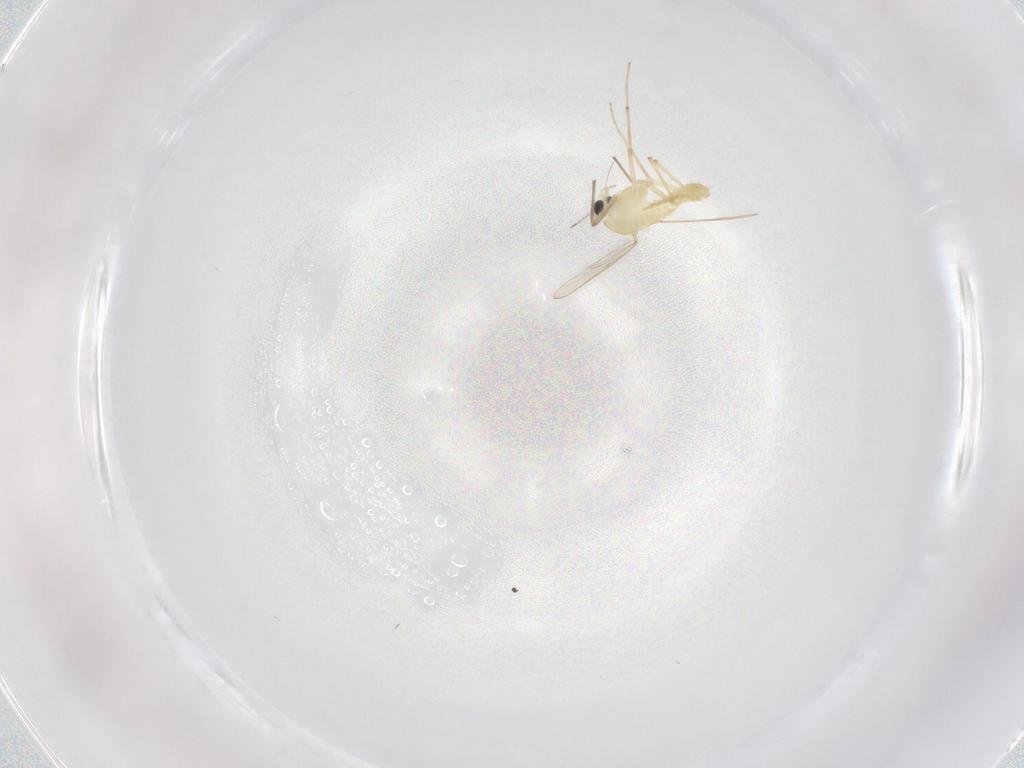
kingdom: Animalia
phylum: Arthropoda
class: Insecta
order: Diptera
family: Chironomidae
